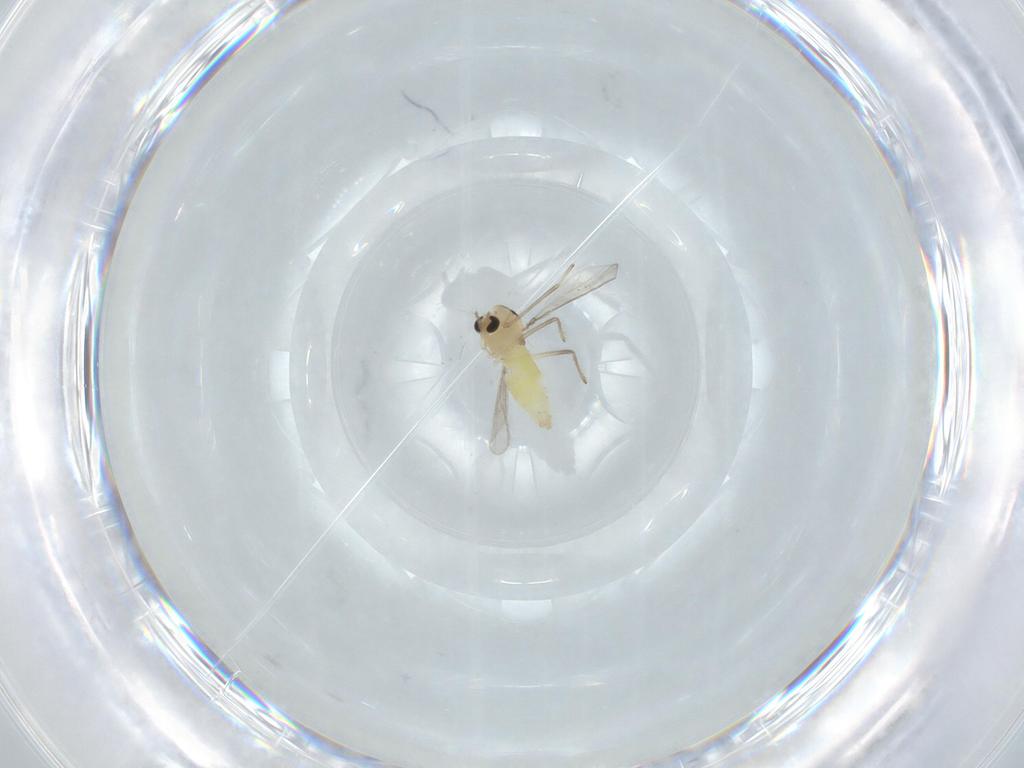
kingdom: Animalia
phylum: Arthropoda
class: Insecta
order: Diptera
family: Chironomidae
